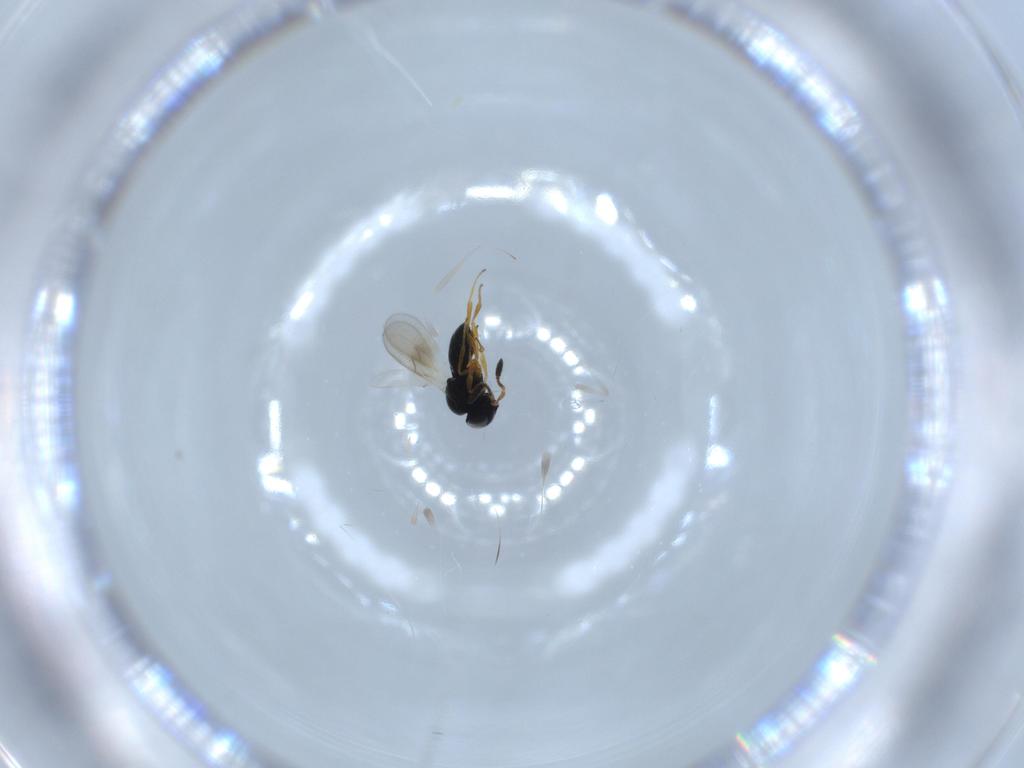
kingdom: Animalia
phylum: Arthropoda
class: Insecta
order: Hymenoptera
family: Scelionidae
